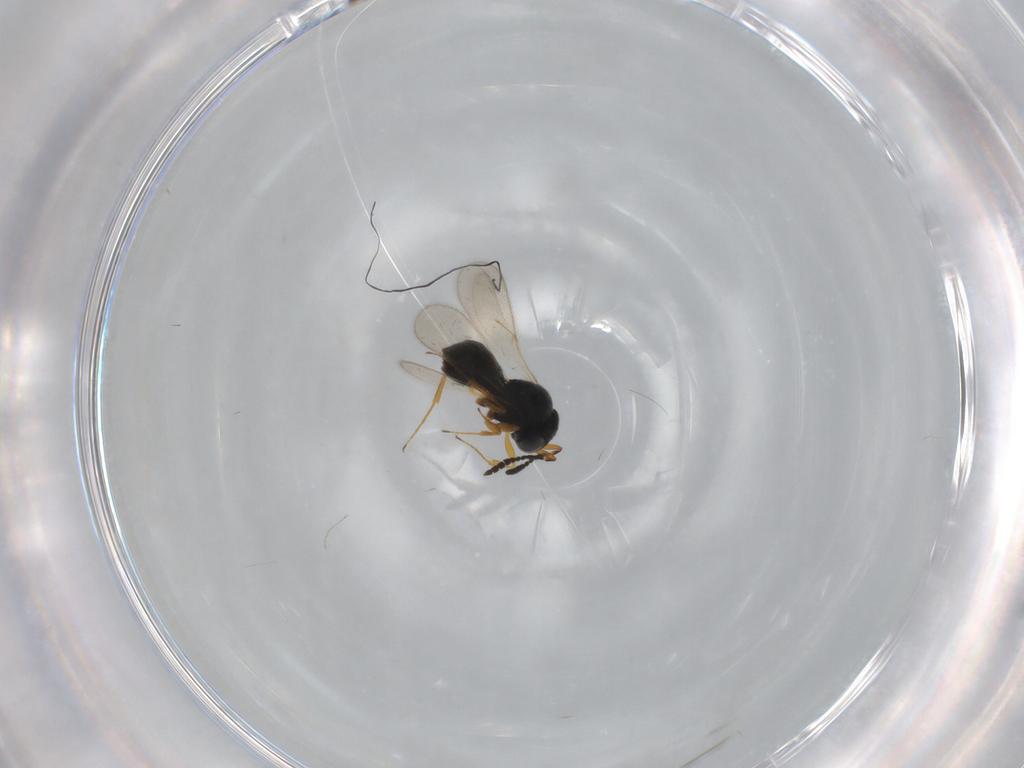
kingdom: Animalia
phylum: Arthropoda
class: Insecta
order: Hymenoptera
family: Scelionidae
